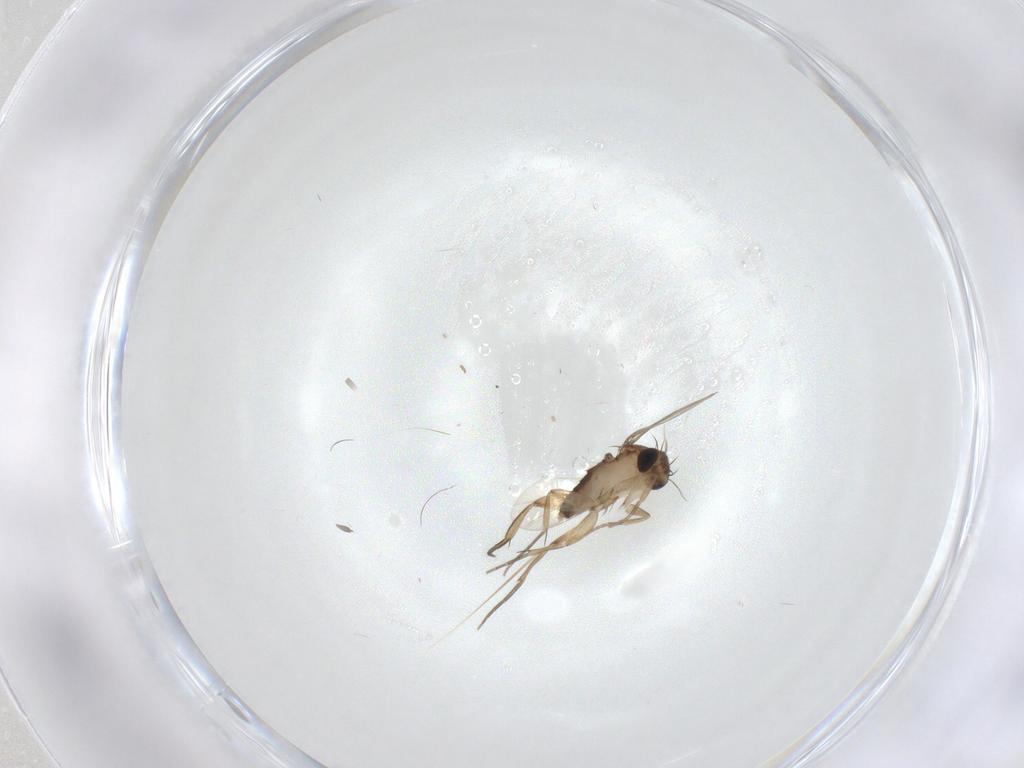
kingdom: Animalia
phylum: Arthropoda
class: Insecta
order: Diptera
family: Phoridae
